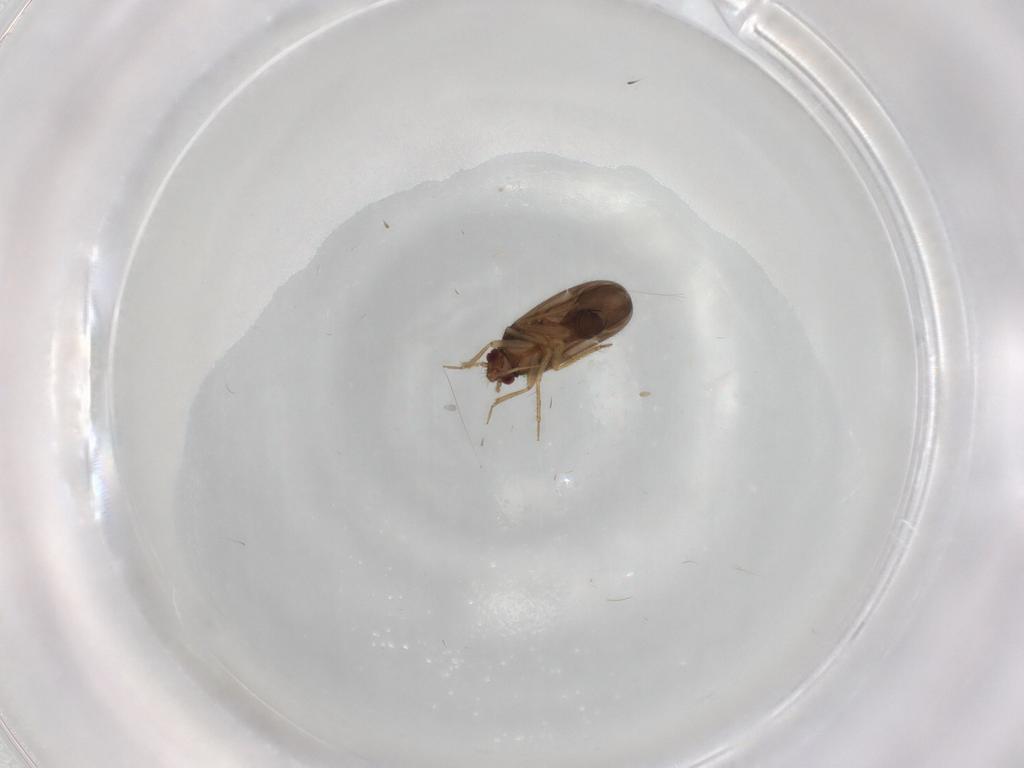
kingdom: Animalia
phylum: Arthropoda
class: Insecta
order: Hemiptera
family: Ceratocombidae
